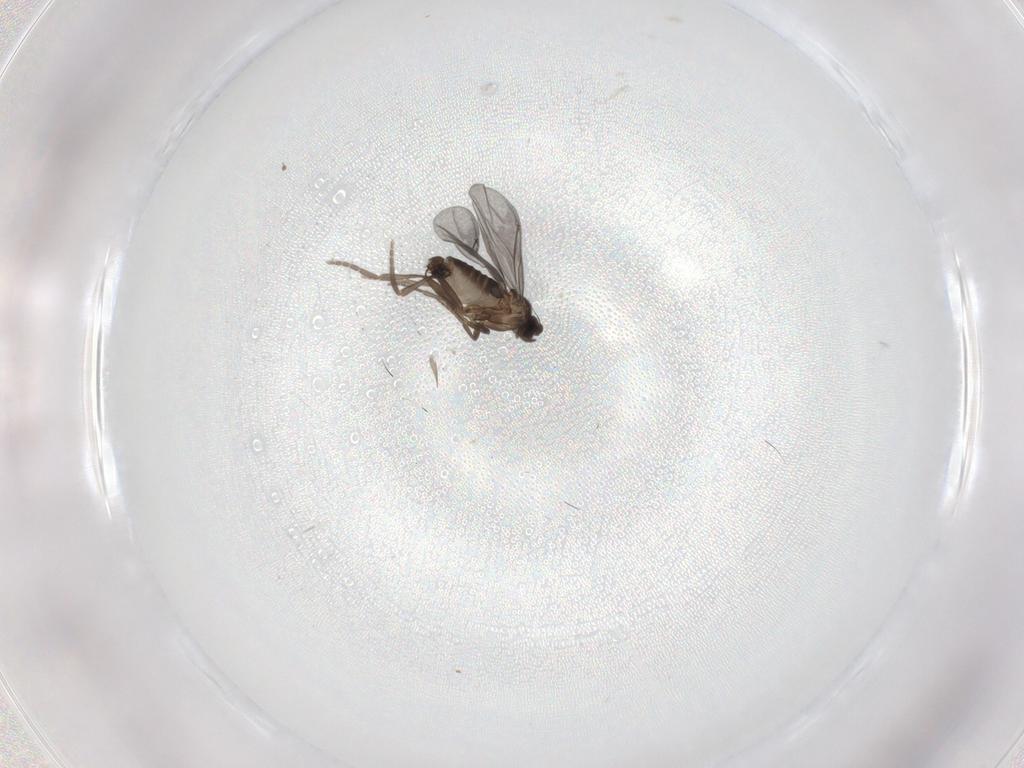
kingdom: Animalia
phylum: Arthropoda
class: Insecta
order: Diptera
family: Phoridae
